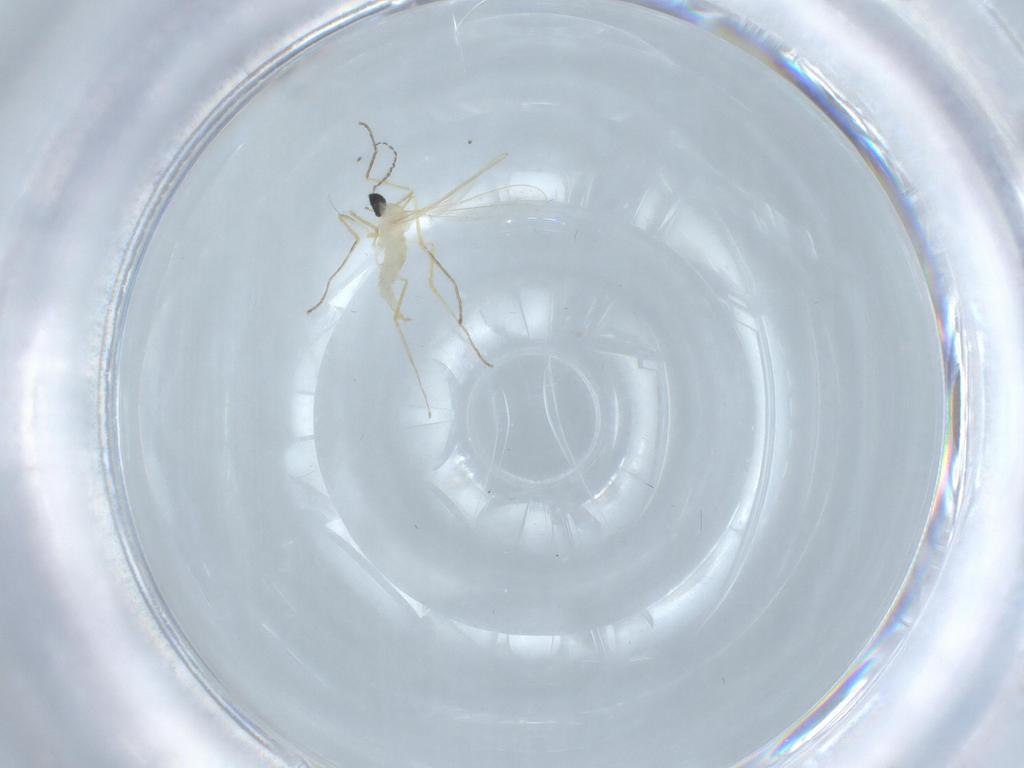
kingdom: Animalia
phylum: Arthropoda
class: Insecta
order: Diptera
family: Cecidomyiidae
